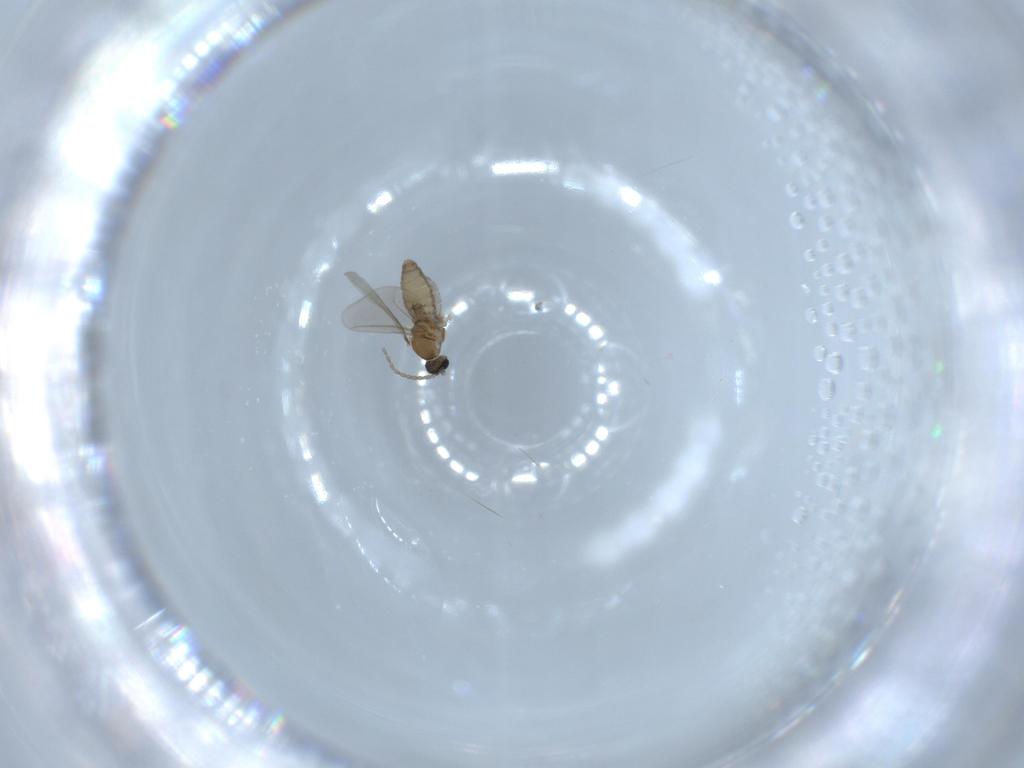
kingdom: Animalia
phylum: Arthropoda
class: Insecta
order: Diptera
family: Cecidomyiidae
